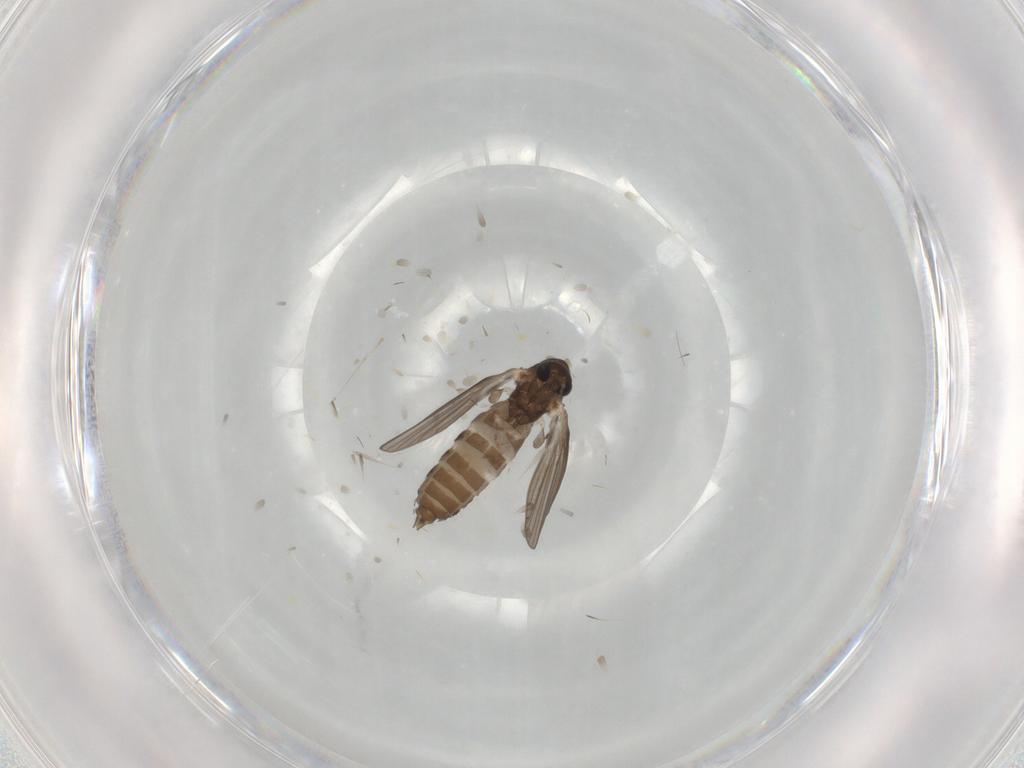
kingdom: Animalia
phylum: Arthropoda
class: Insecta
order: Diptera
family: Psychodidae
